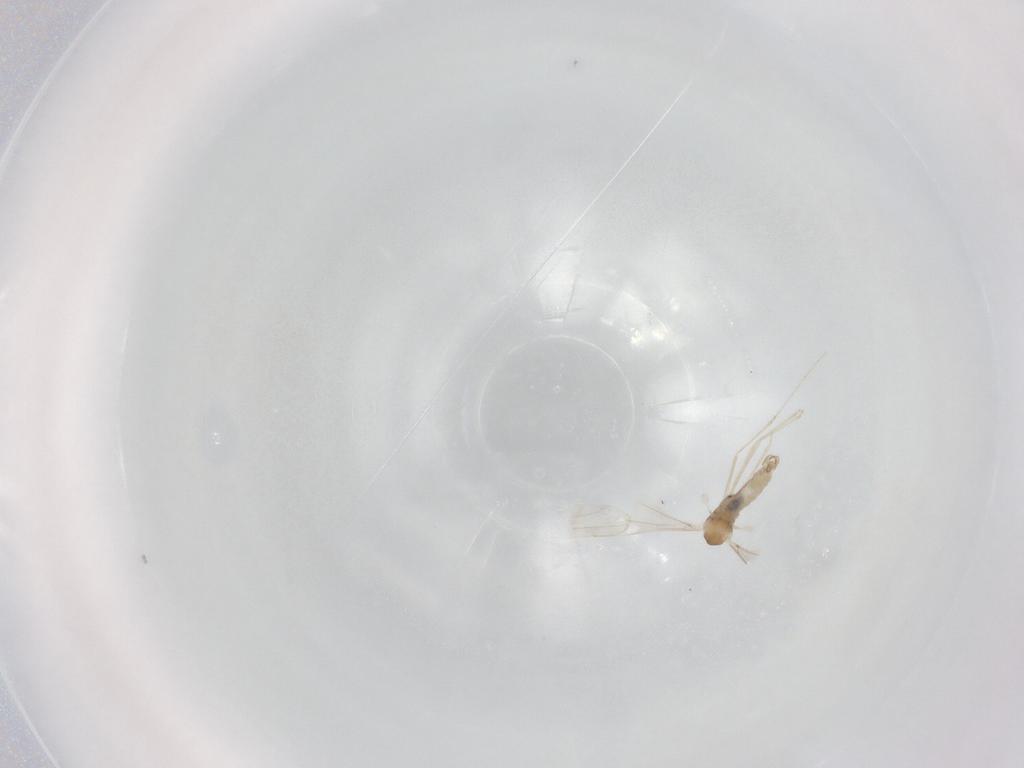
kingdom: Animalia
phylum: Arthropoda
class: Insecta
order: Diptera
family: Cecidomyiidae
